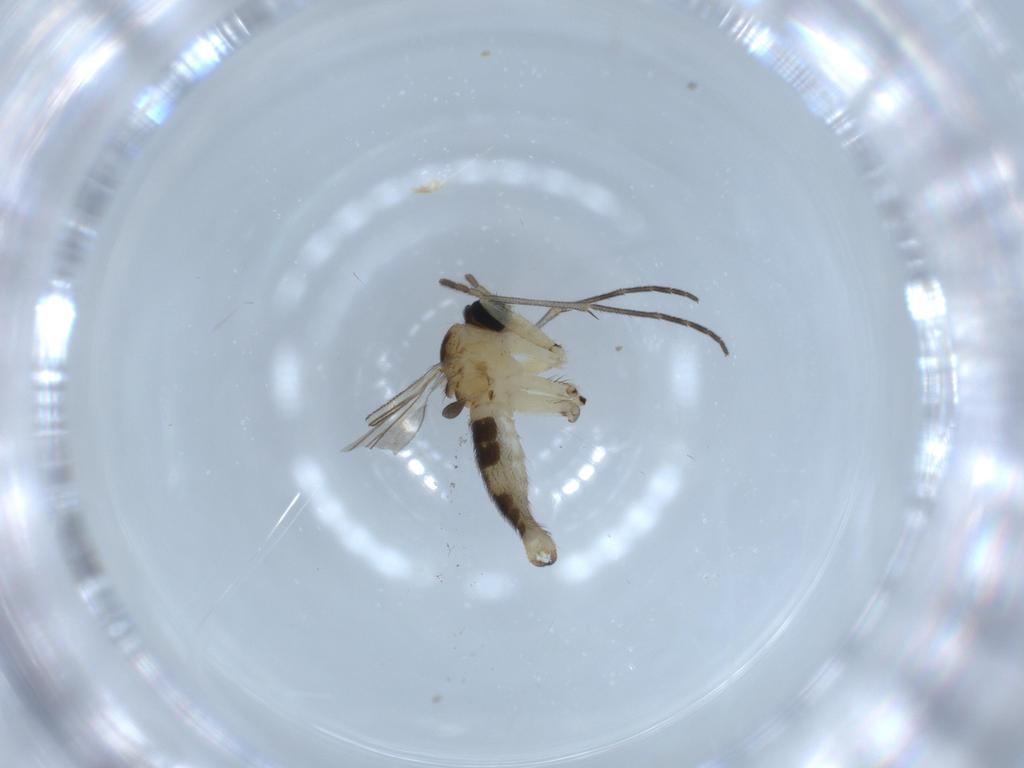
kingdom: Animalia
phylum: Arthropoda
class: Insecta
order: Diptera
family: Sciaridae
